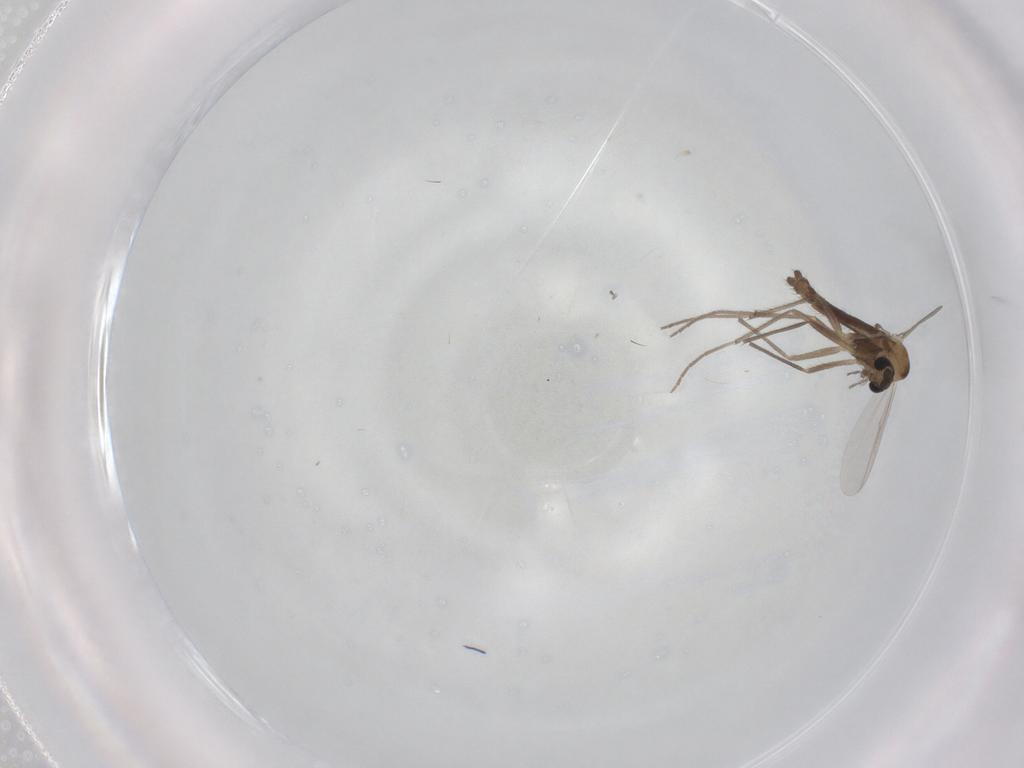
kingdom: Animalia
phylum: Arthropoda
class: Insecta
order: Diptera
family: Chironomidae
